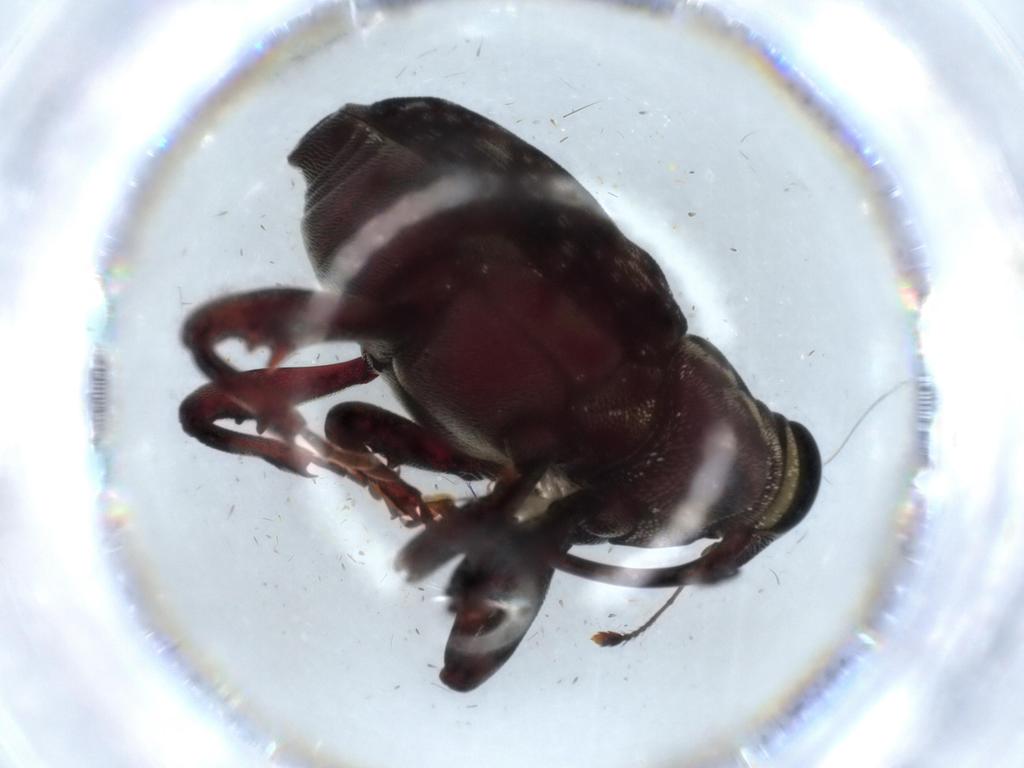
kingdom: Animalia
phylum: Arthropoda
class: Insecta
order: Coleoptera
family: Curculionidae
